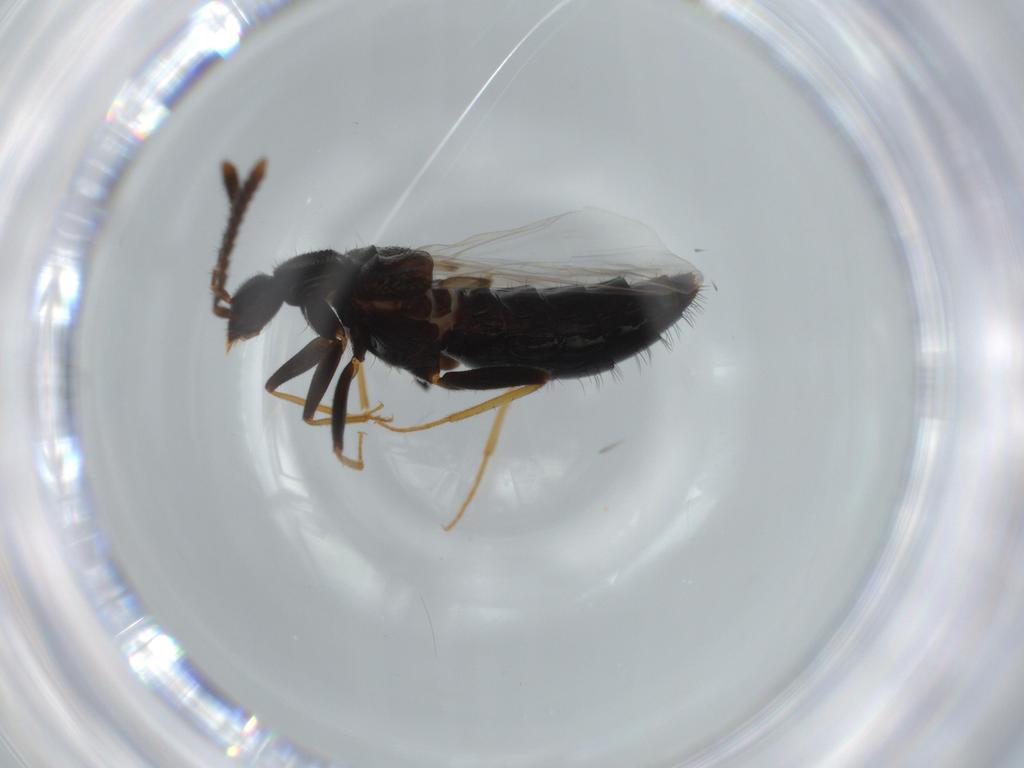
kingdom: Animalia
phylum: Arthropoda
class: Insecta
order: Coleoptera
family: Staphylinidae
